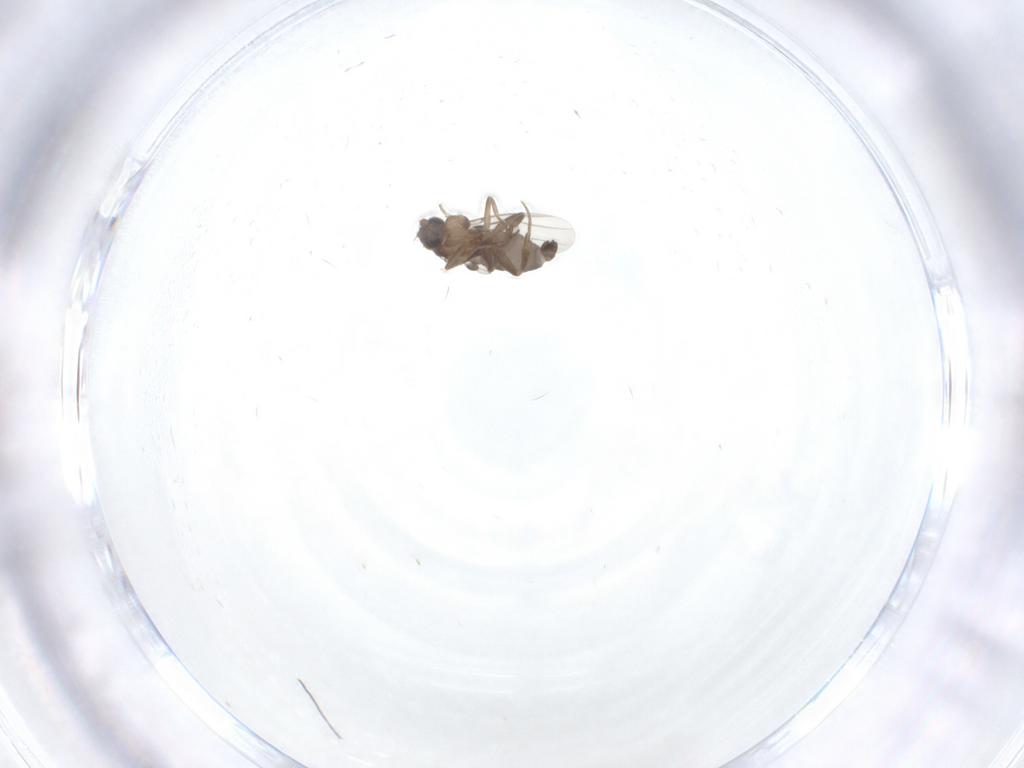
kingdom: Animalia
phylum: Arthropoda
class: Insecta
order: Diptera
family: Phoridae
